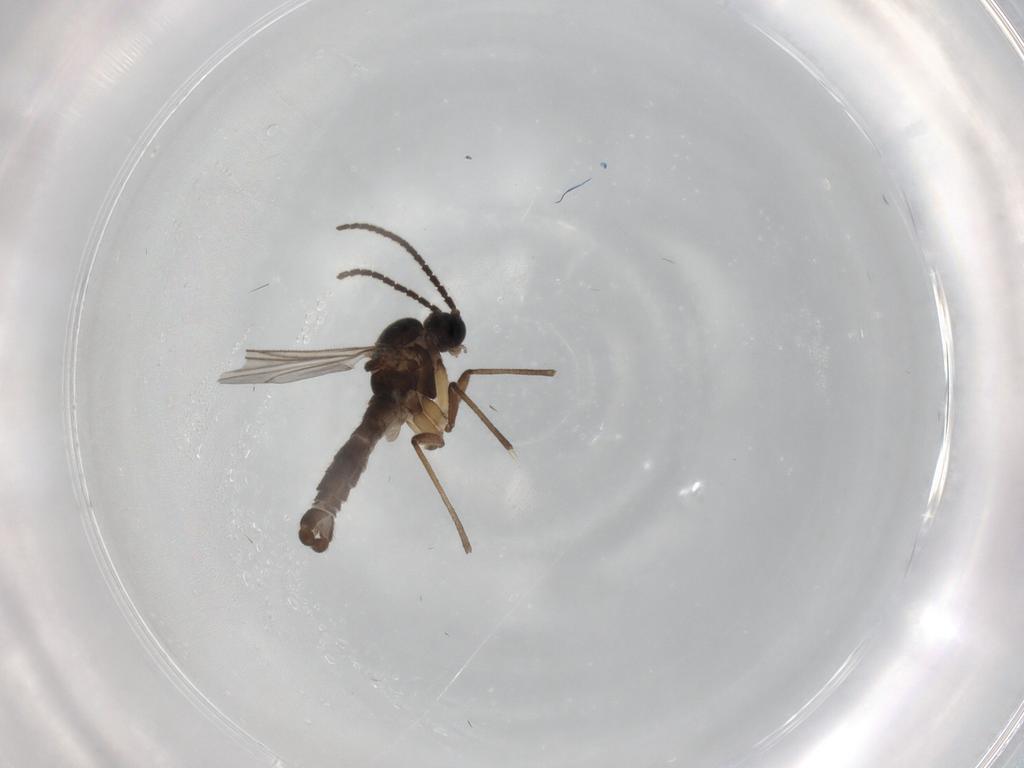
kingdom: Animalia
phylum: Arthropoda
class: Insecta
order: Diptera
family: Sciaridae
